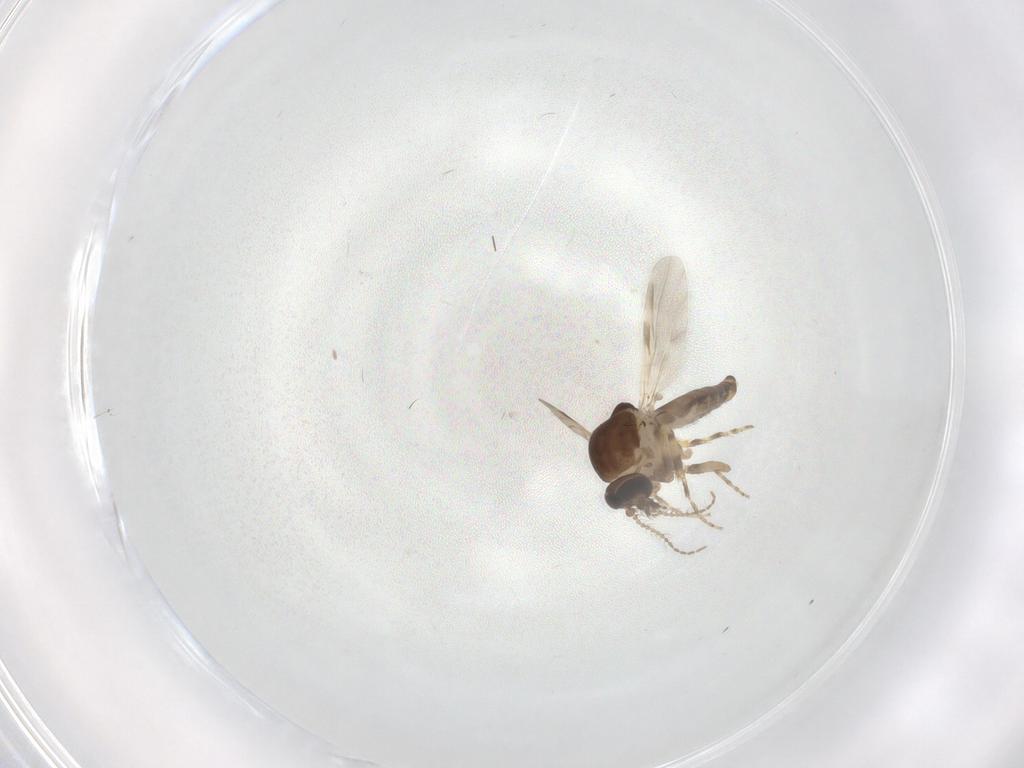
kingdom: Animalia
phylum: Arthropoda
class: Insecta
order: Diptera
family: Ceratopogonidae
